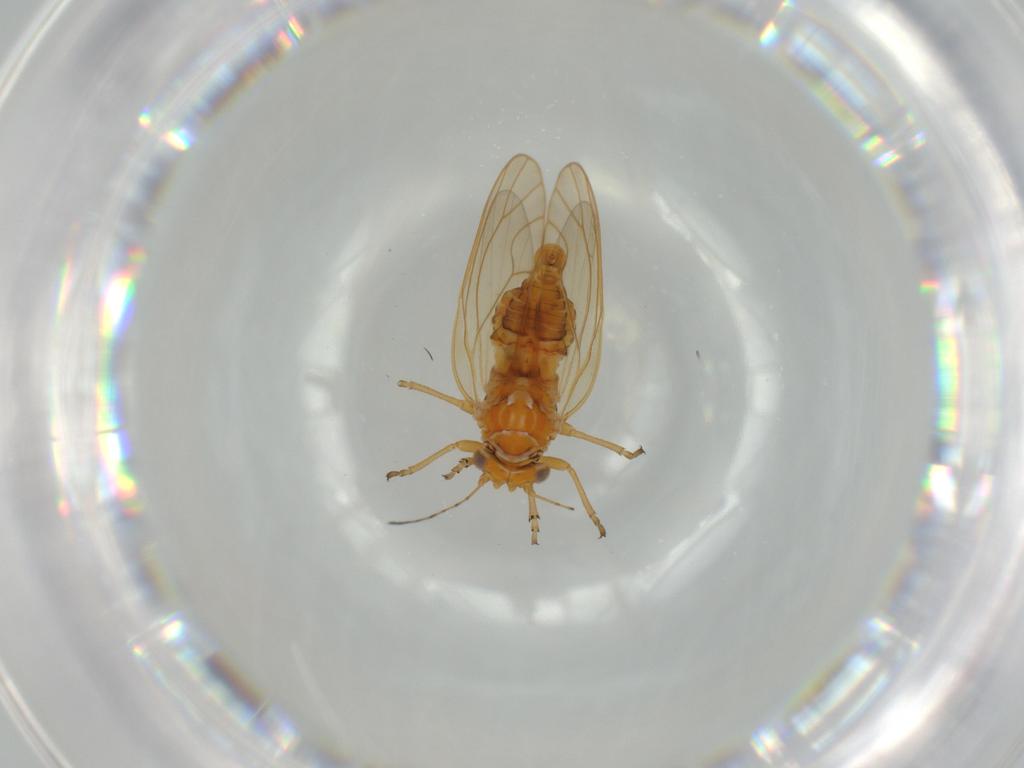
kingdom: Animalia
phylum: Arthropoda
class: Insecta
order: Hemiptera
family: Psyllidae
